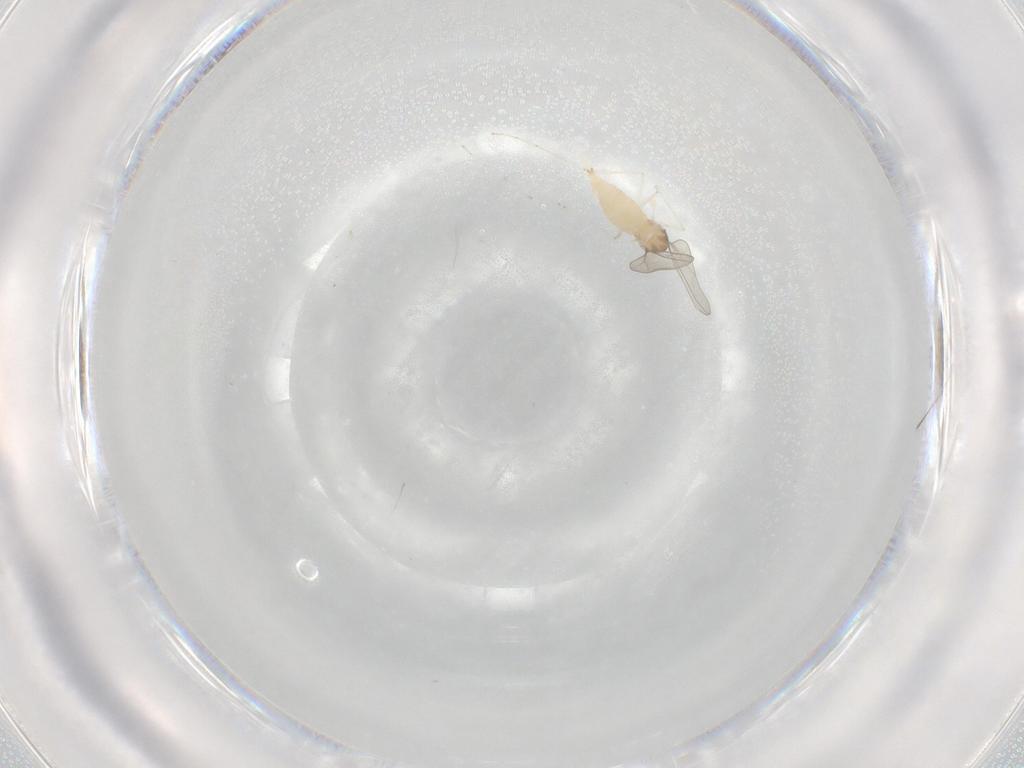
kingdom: Animalia
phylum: Arthropoda
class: Insecta
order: Diptera
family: Cecidomyiidae
